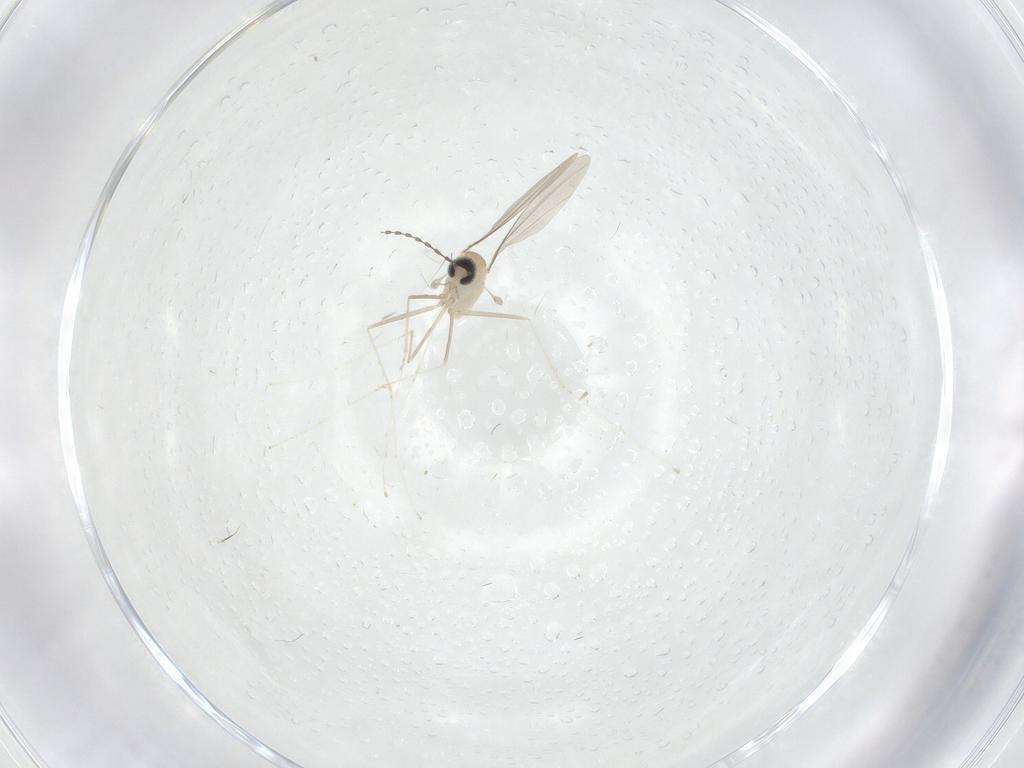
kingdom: Animalia
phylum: Arthropoda
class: Insecta
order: Diptera
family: Cecidomyiidae
